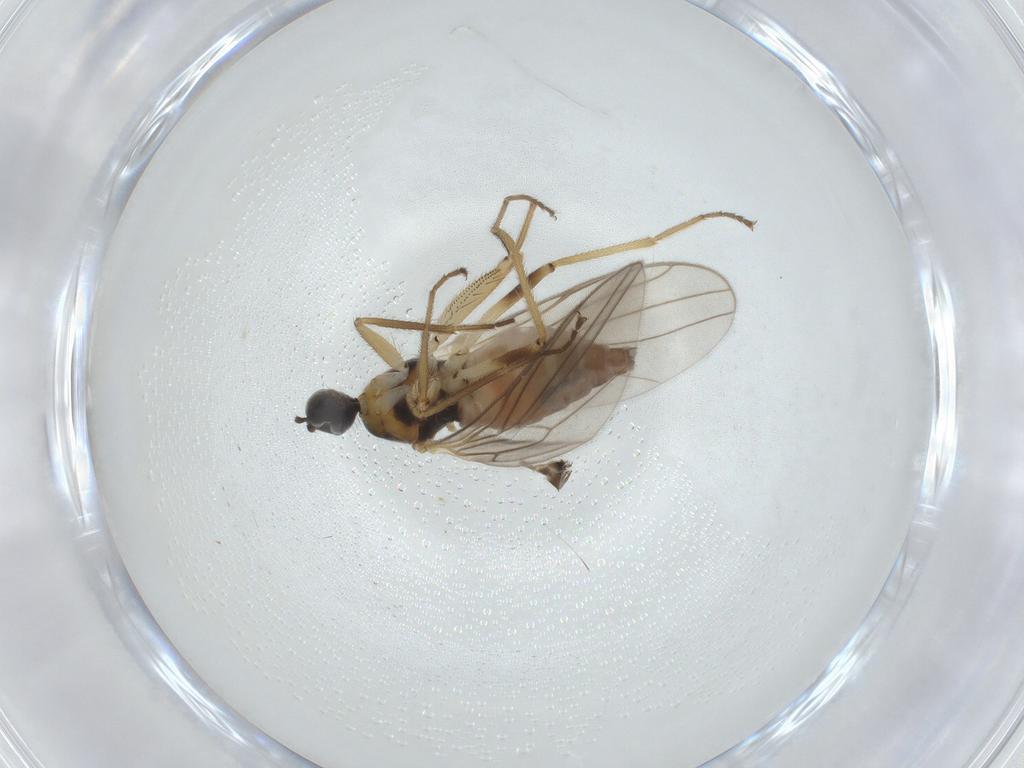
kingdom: Animalia
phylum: Arthropoda
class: Insecta
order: Diptera
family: Hybotidae
